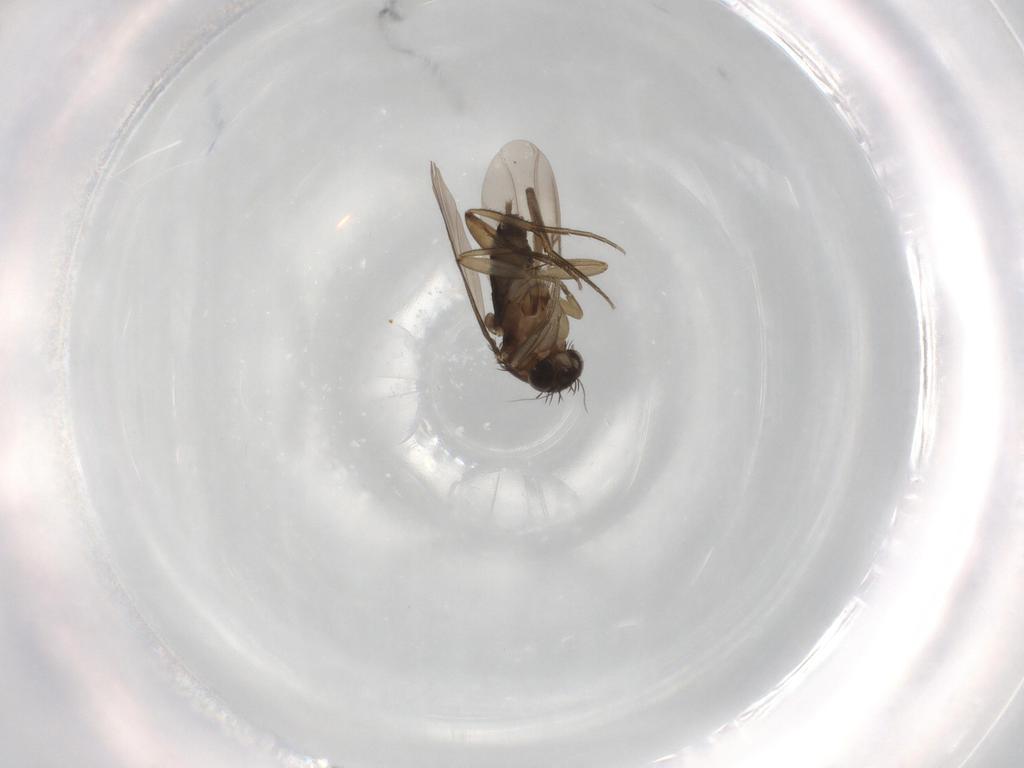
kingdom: Animalia
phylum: Arthropoda
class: Insecta
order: Diptera
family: Phoridae
